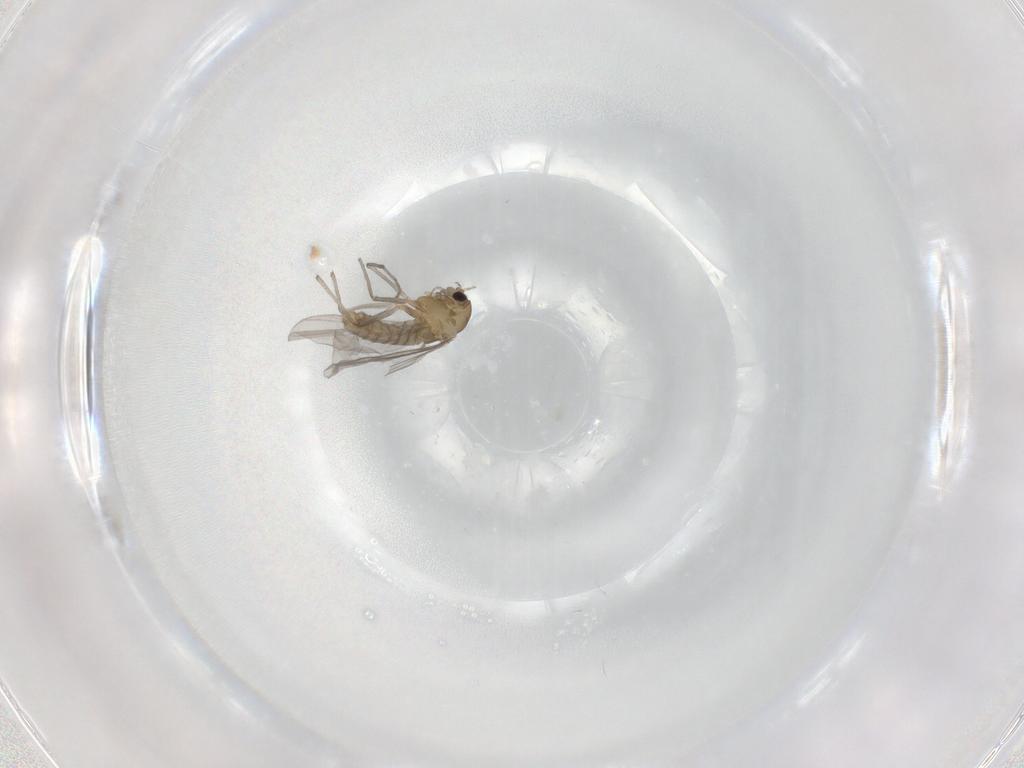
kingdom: Animalia
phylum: Arthropoda
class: Insecta
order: Diptera
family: Chironomidae
